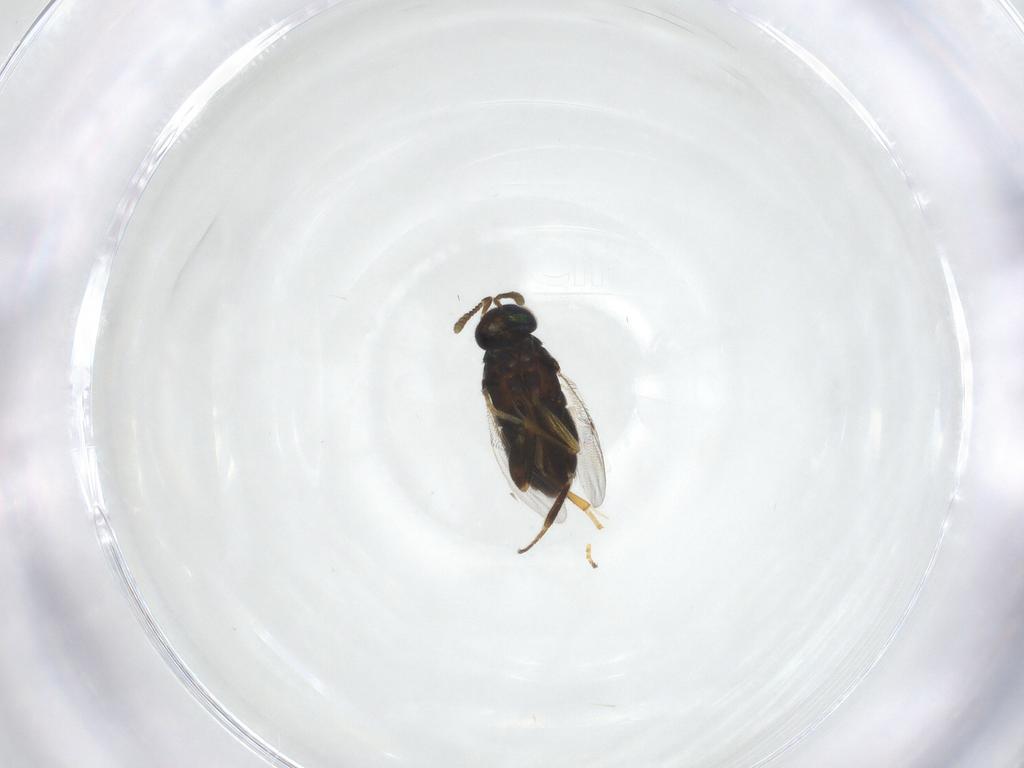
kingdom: Animalia
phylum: Arthropoda
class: Insecta
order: Hymenoptera
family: Encyrtidae
